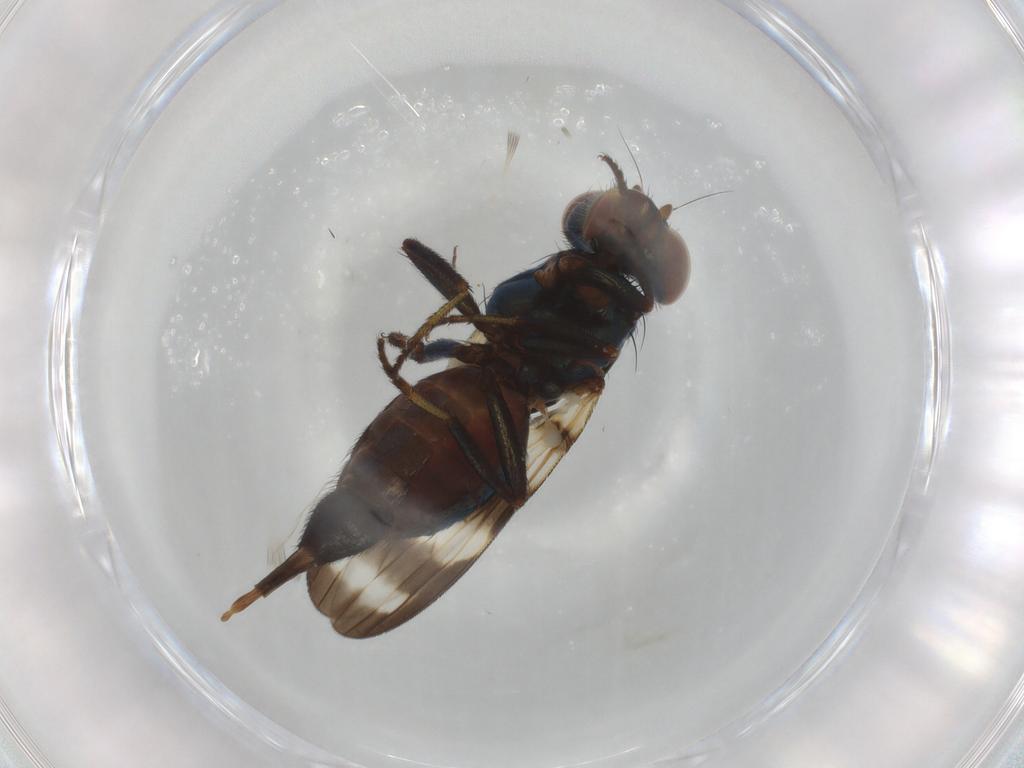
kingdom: Animalia
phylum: Arthropoda
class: Insecta
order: Diptera
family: Ulidiidae
